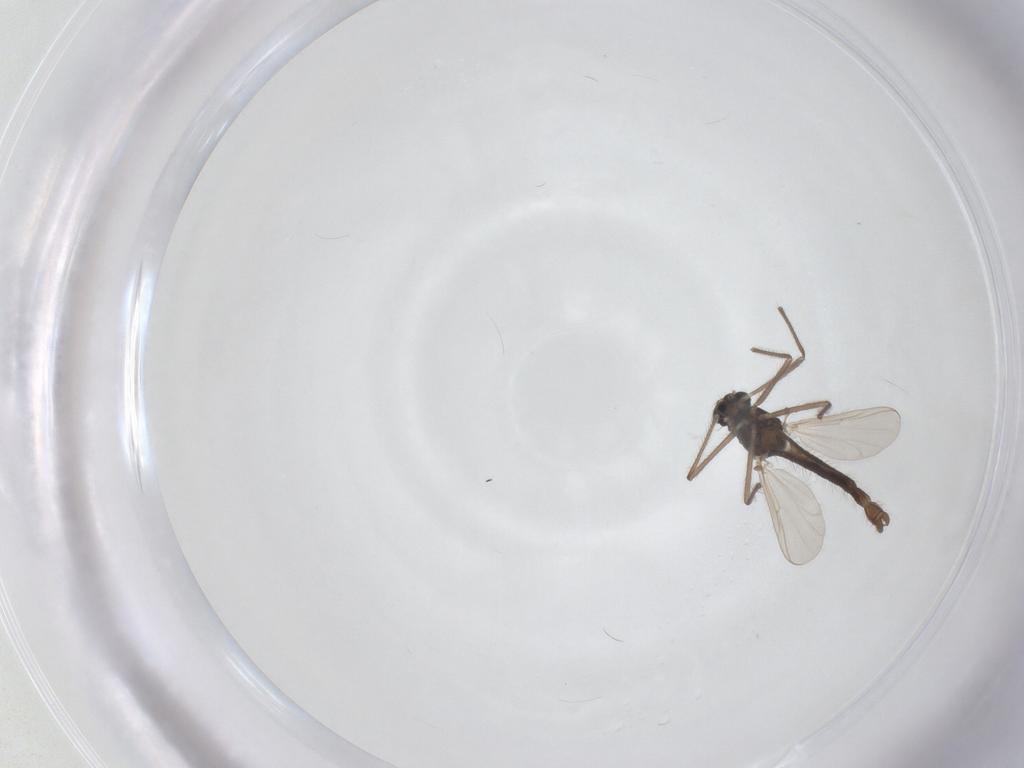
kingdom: Animalia
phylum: Arthropoda
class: Insecta
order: Diptera
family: Chironomidae
